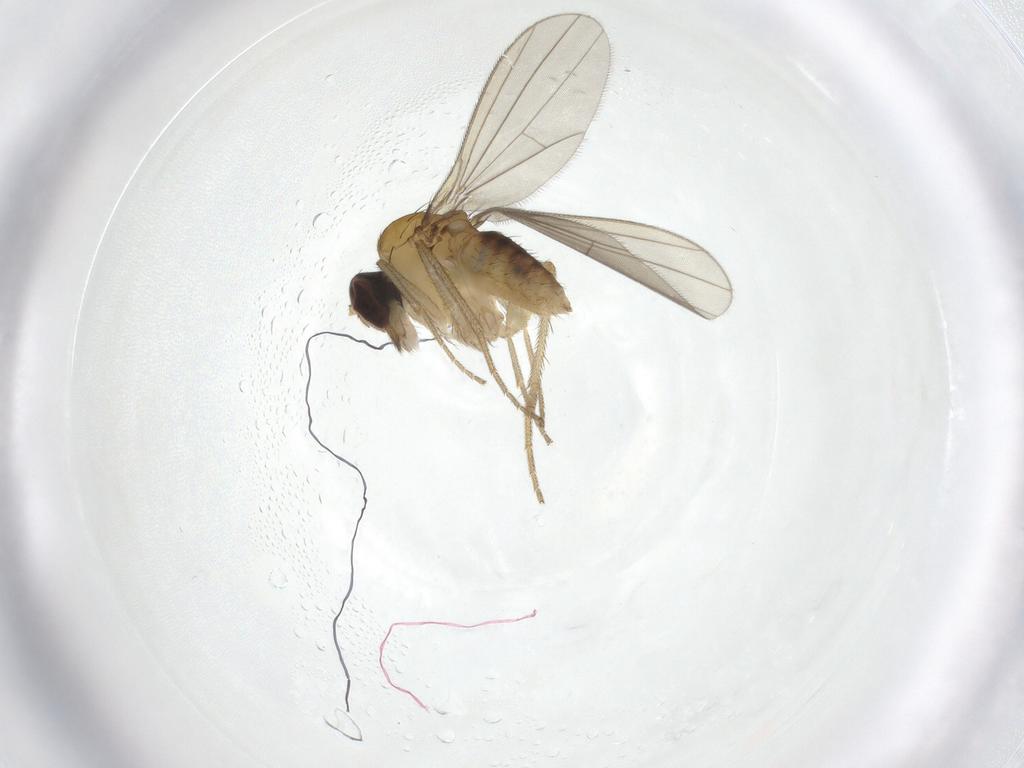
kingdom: Animalia
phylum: Arthropoda
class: Insecta
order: Diptera
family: Dolichopodidae
